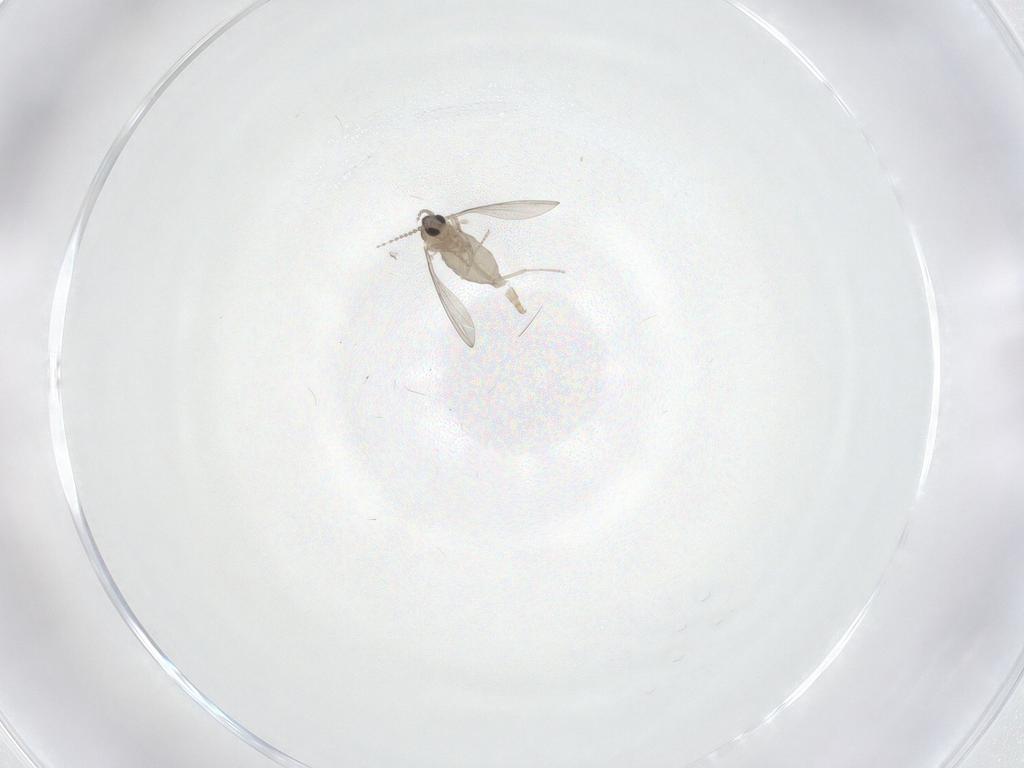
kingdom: Animalia
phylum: Arthropoda
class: Insecta
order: Diptera
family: Cecidomyiidae
